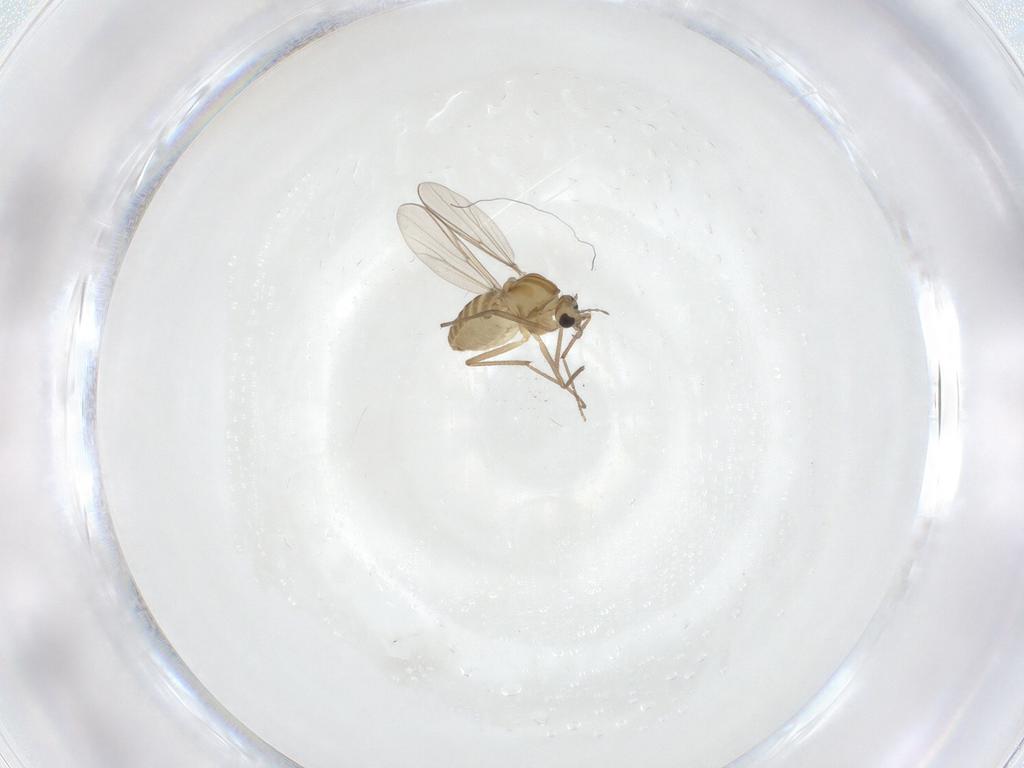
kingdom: Animalia
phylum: Arthropoda
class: Insecta
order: Diptera
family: Chironomidae
